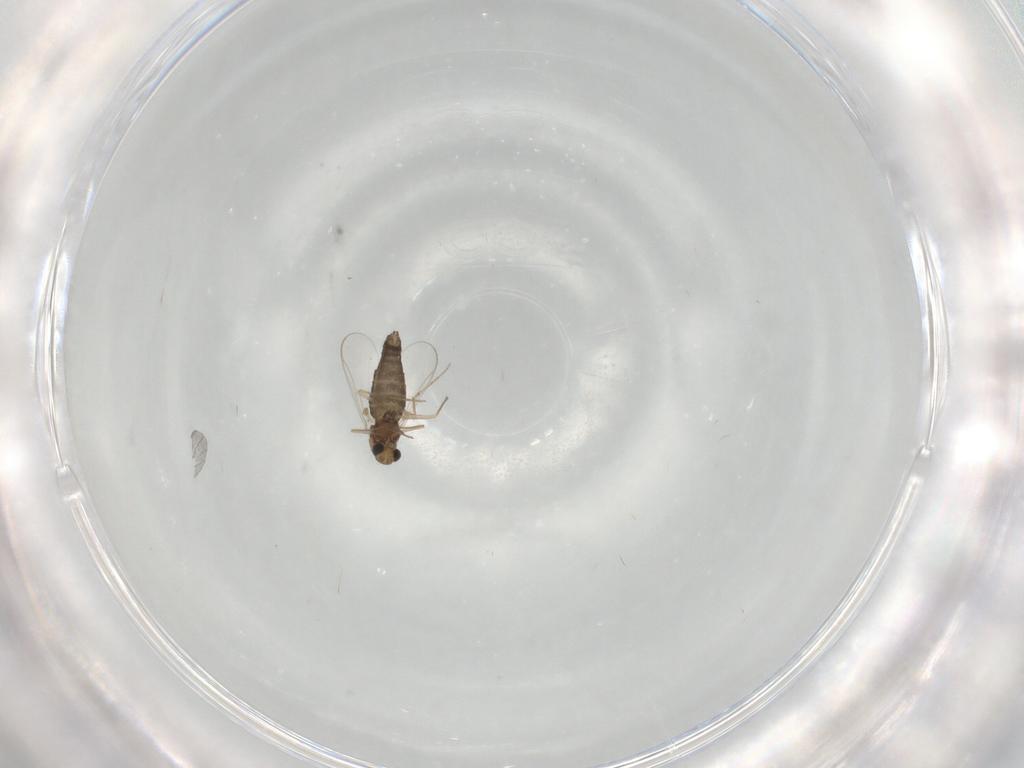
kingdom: Animalia
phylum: Arthropoda
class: Insecta
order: Diptera
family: Chironomidae
